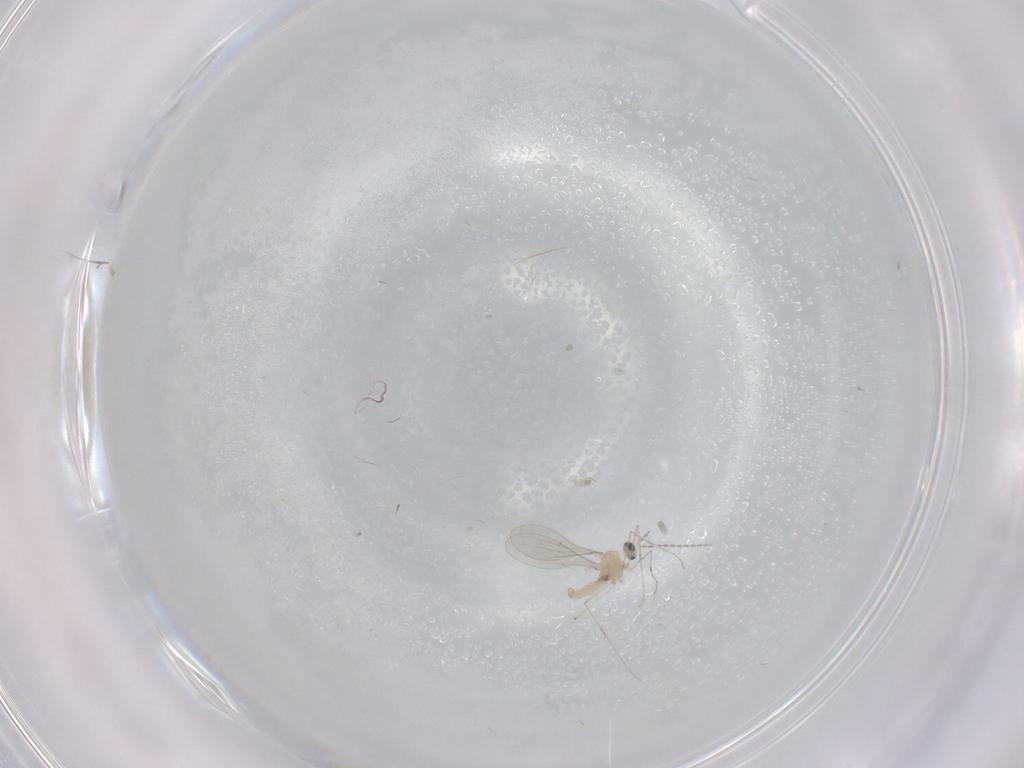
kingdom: Animalia
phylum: Arthropoda
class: Insecta
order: Diptera
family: Cecidomyiidae
